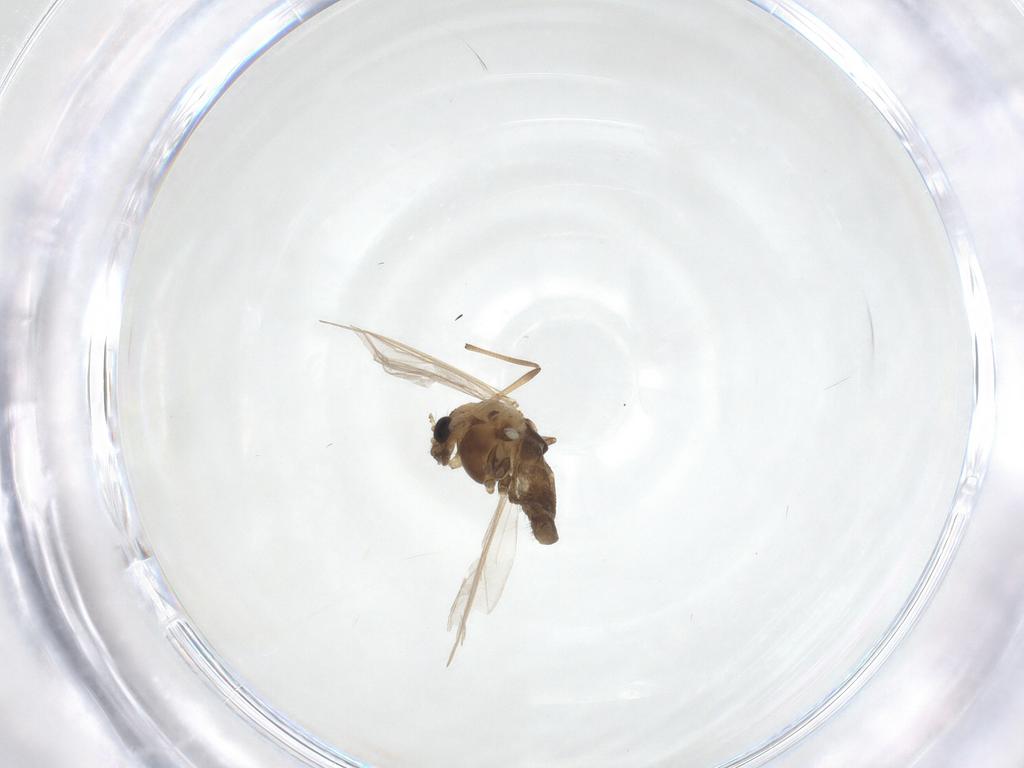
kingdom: Animalia
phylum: Arthropoda
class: Insecta
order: Diptera
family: Chironomidae
